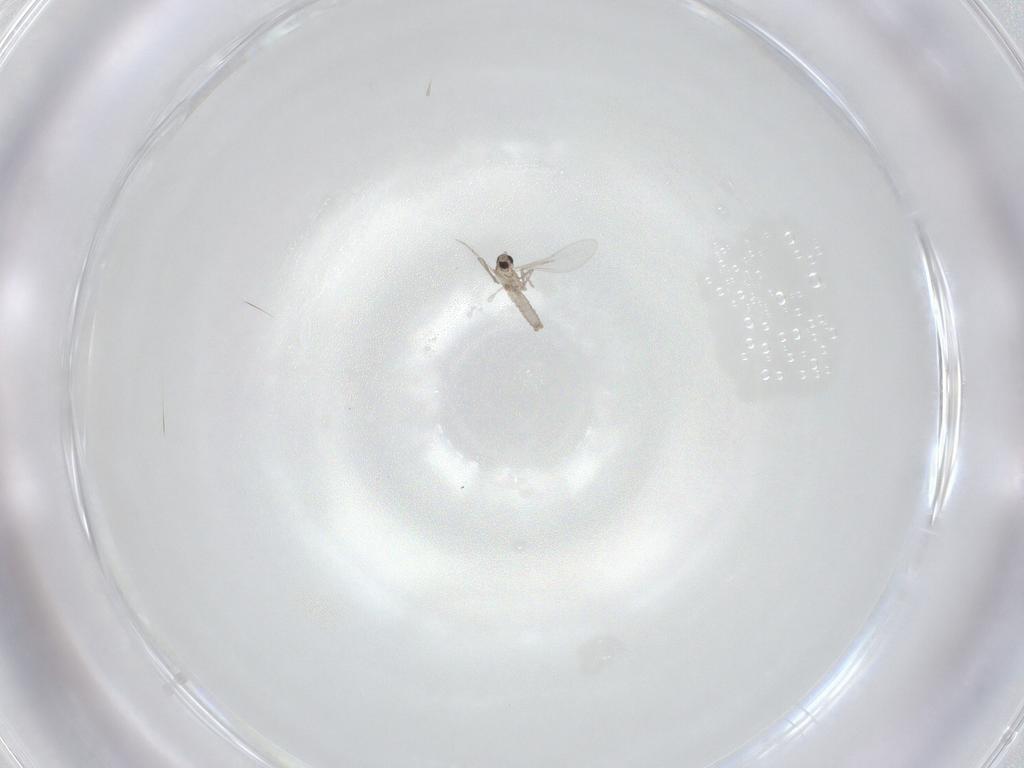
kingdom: Animalia
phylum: Arthropoda
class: Insecta
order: Diptera
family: Cecidomyiidae
